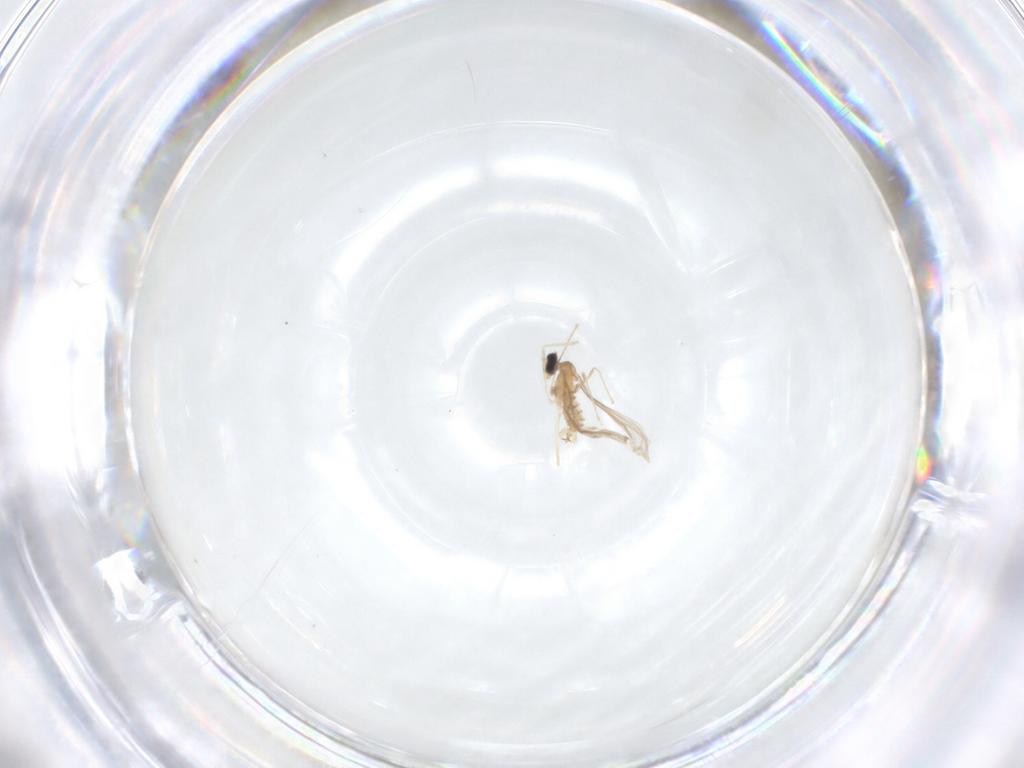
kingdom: Animalia
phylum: Arthropoda
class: Insecta
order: Diptera
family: Cecidomyiidae
